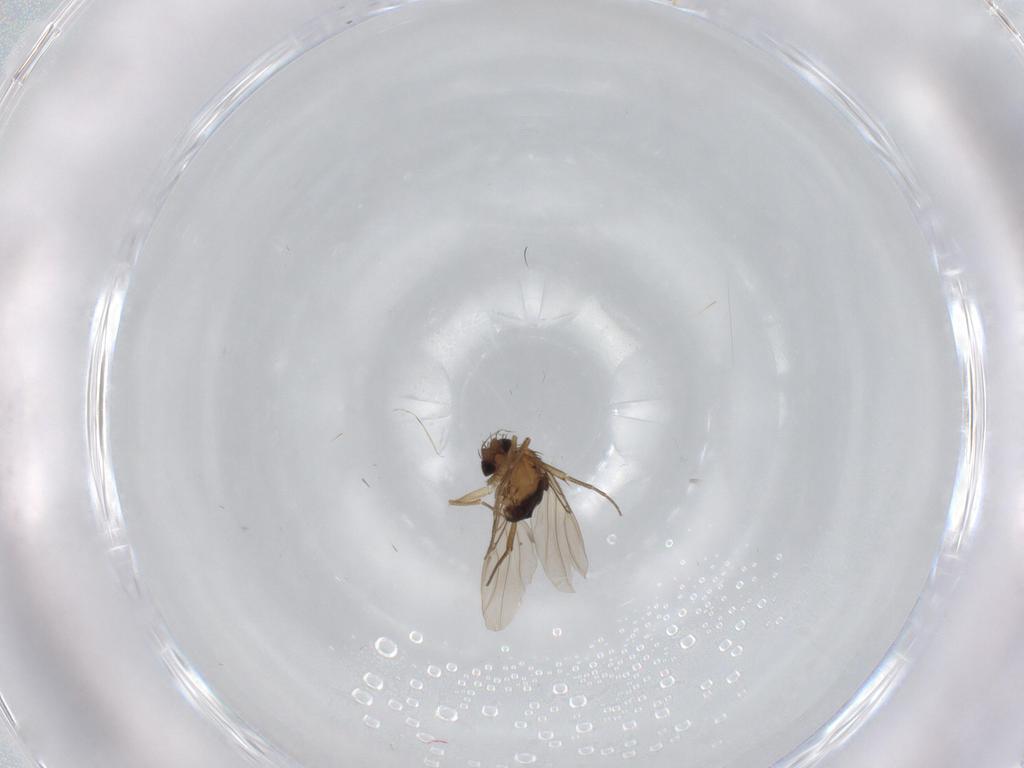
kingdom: Animalia
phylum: Arthropoda
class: Insecta
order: Diptera
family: Phoridae
